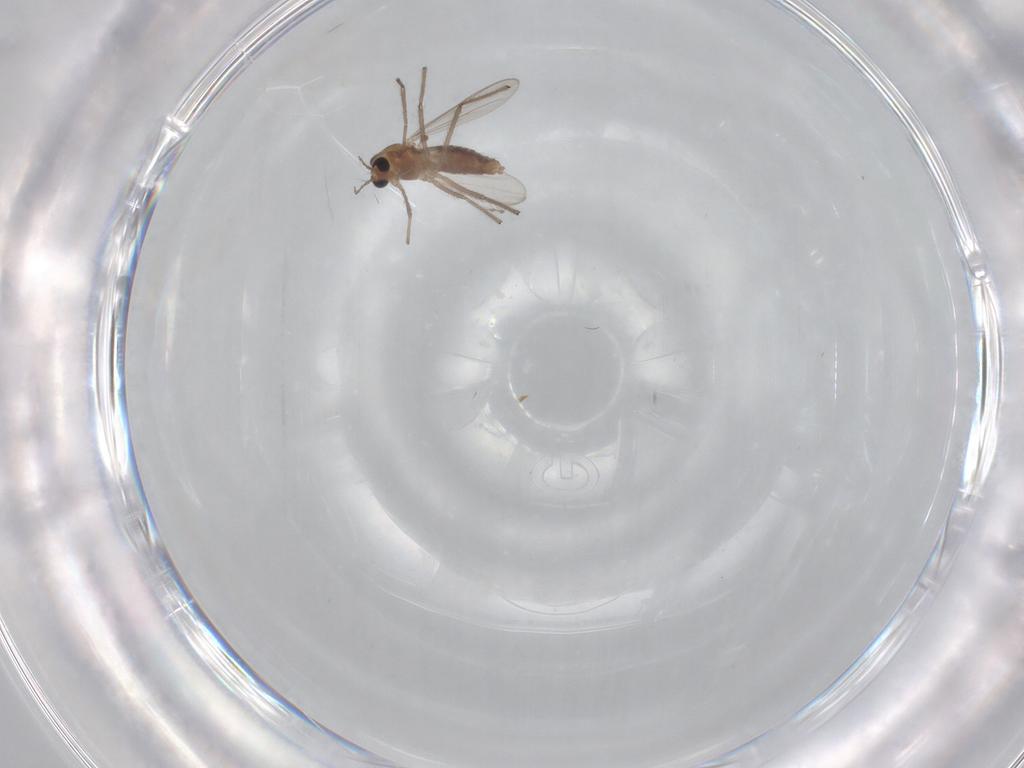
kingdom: Animalia
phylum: Arthropoda
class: Insecta
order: Diptera
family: Chironomidae
